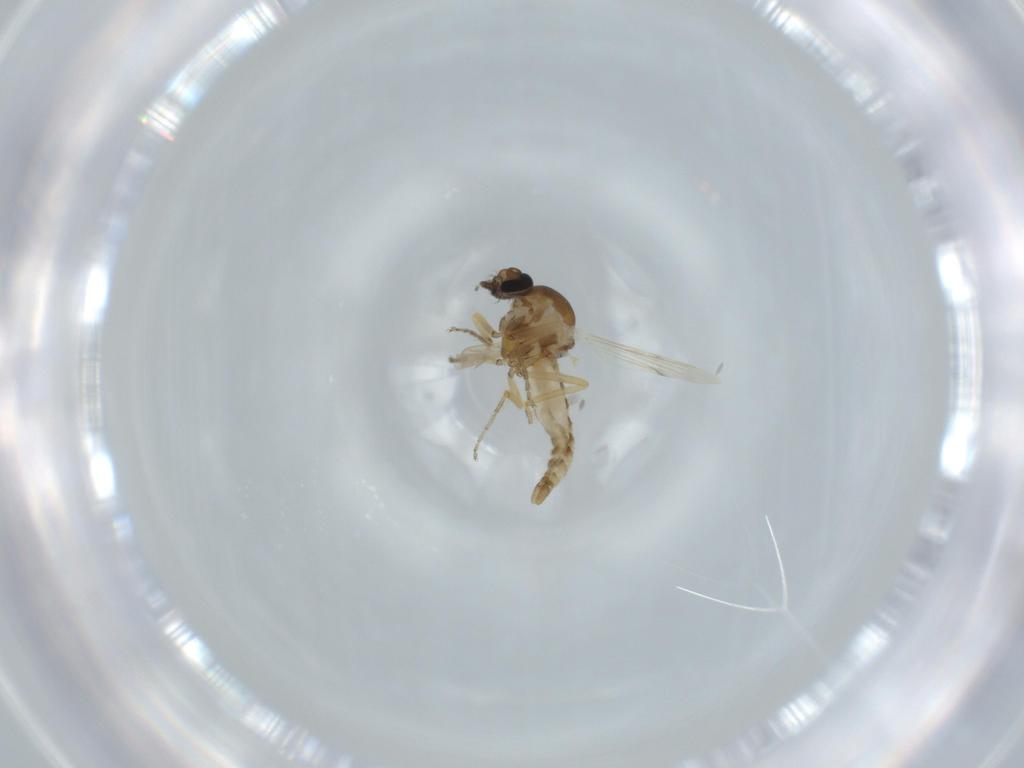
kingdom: Animalia
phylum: Arthropoda
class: Insecta
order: Diptera
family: Ceratopogonidae
